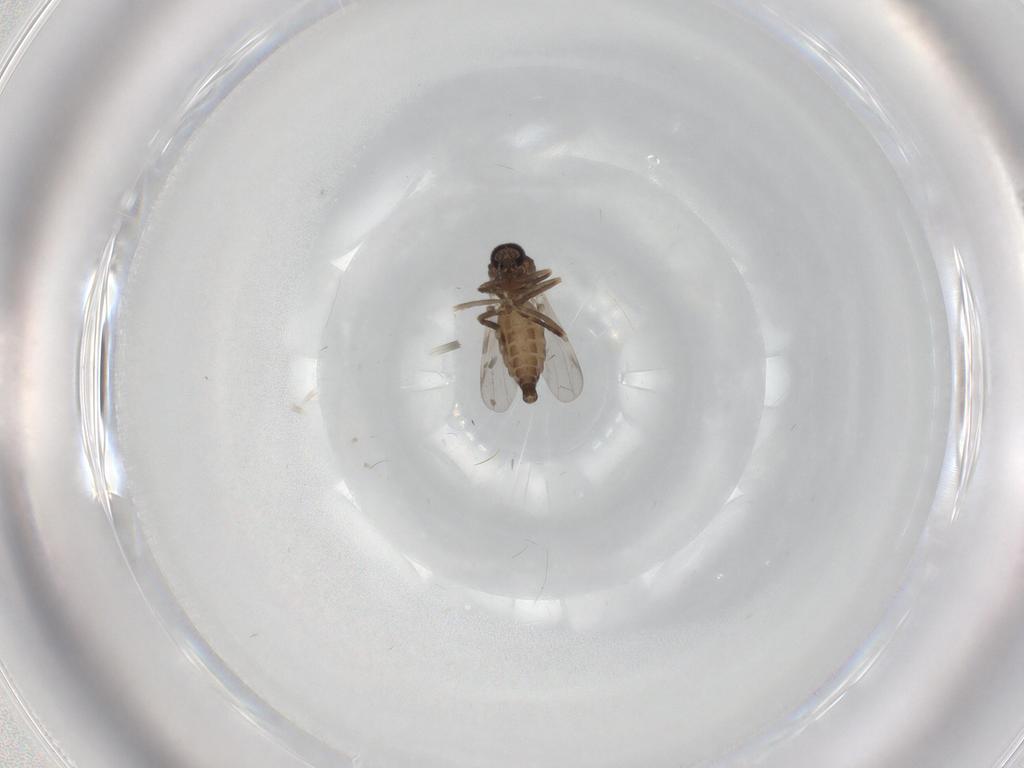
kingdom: Animalia
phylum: Arthropoda
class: Insecta
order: Diptera
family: Ceratopogonidae
